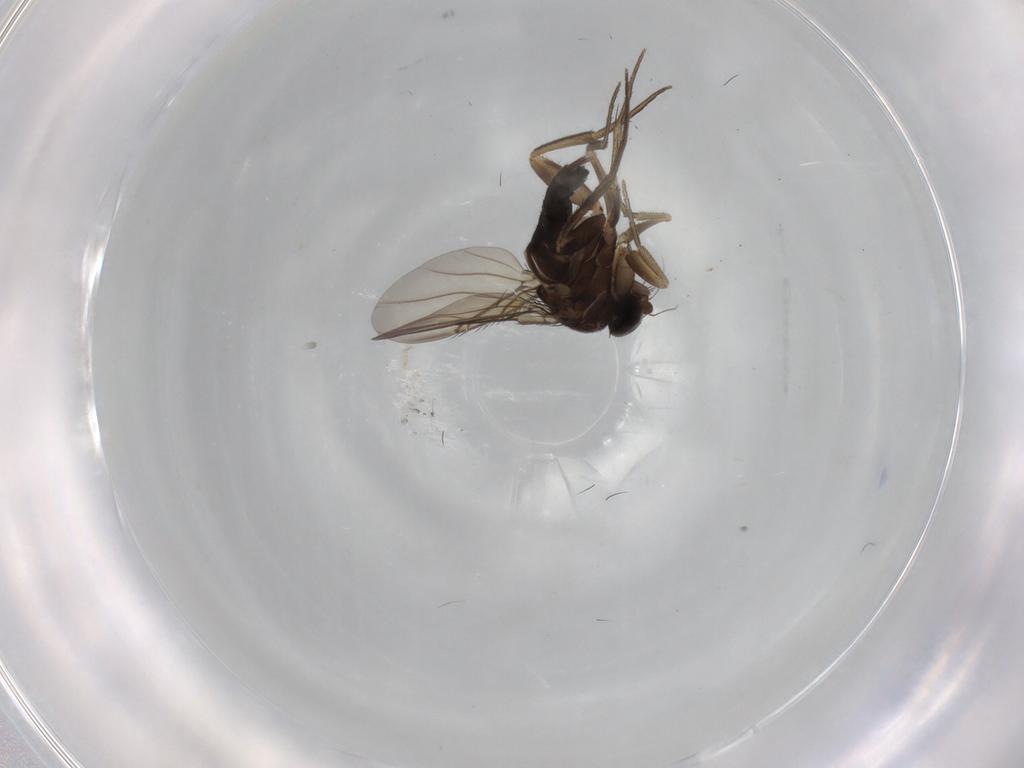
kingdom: Animalia
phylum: Arthropoda
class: Insecta
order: Diptera
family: Phoridae
